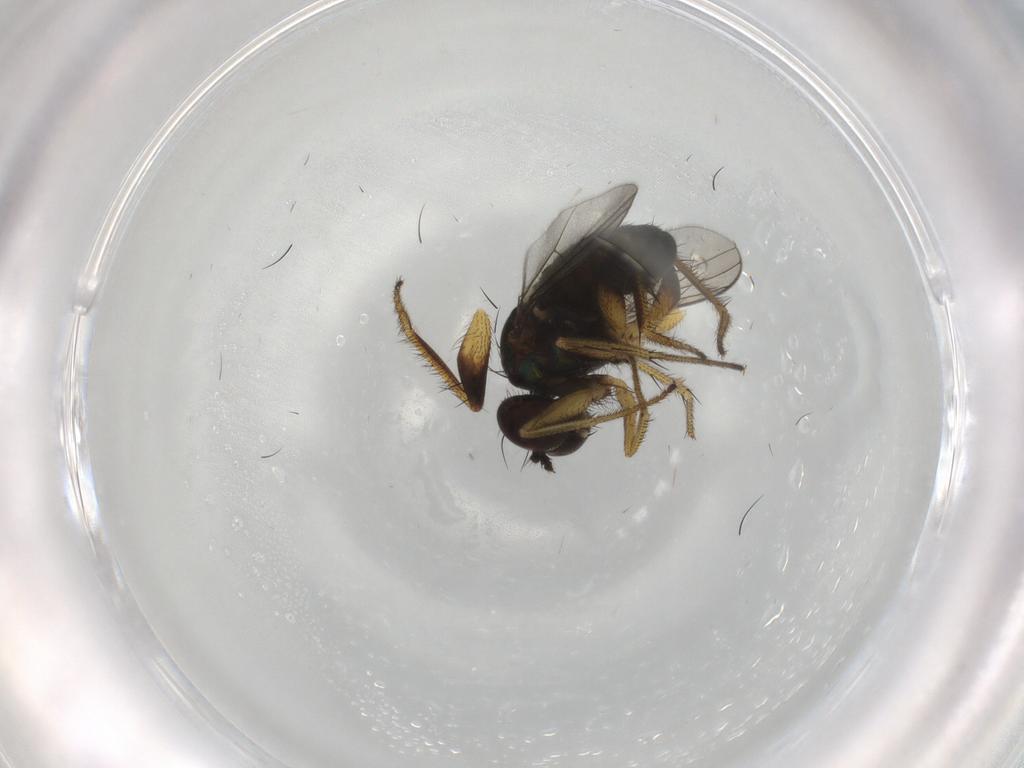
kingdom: Animalia
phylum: Arthropoda
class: Insecta
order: Diptera
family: Dolichopodidae
